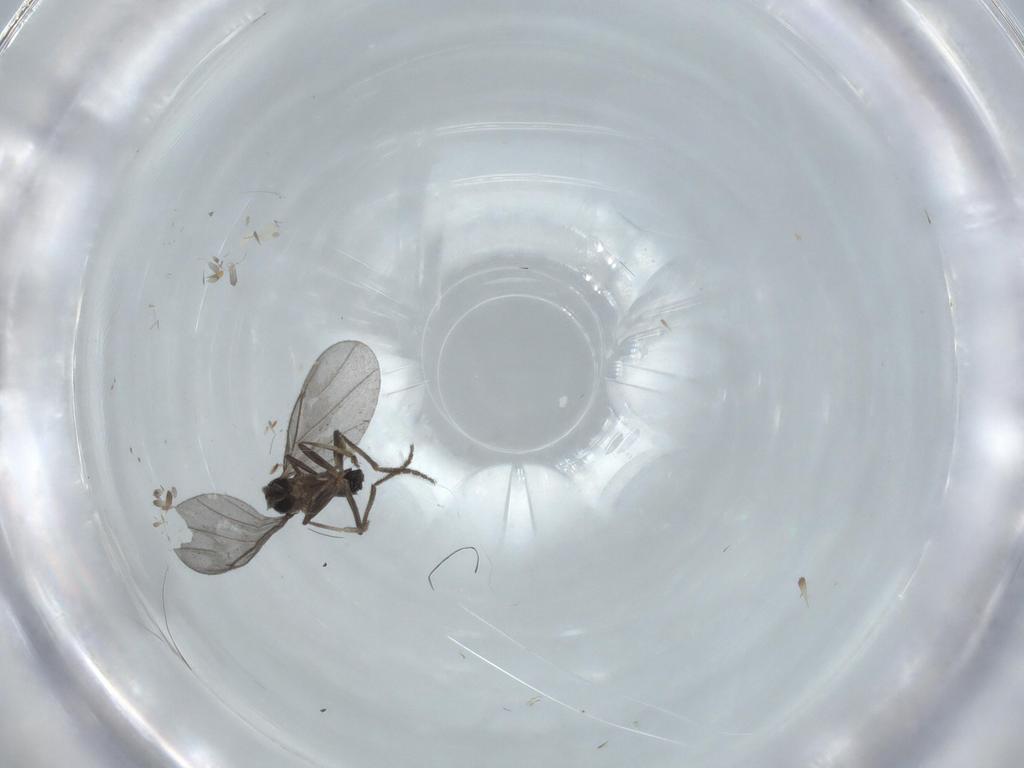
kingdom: Animalia
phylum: Arthropoda
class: Insecta
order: Diptera
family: Phoridae
